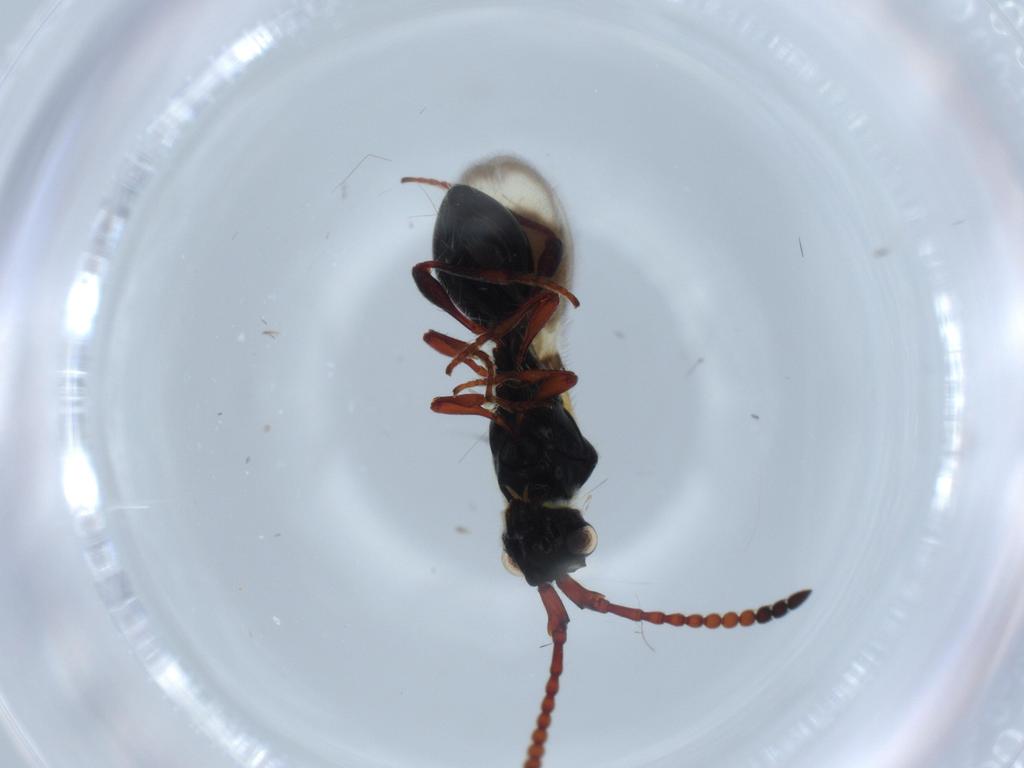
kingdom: Animalia
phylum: Arthropoda
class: Insecta
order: Hymenoptera
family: Diapriidae
